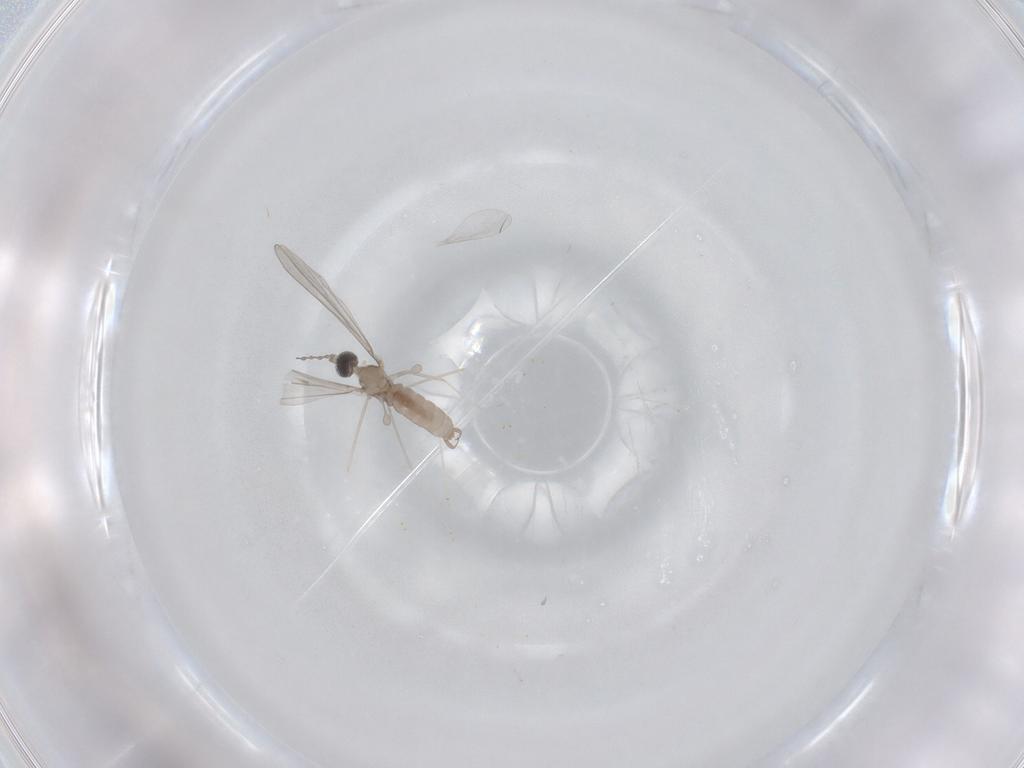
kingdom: Animalia
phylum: Arthropoda
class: Insecta
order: Diptera
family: Cecidomyiidae
